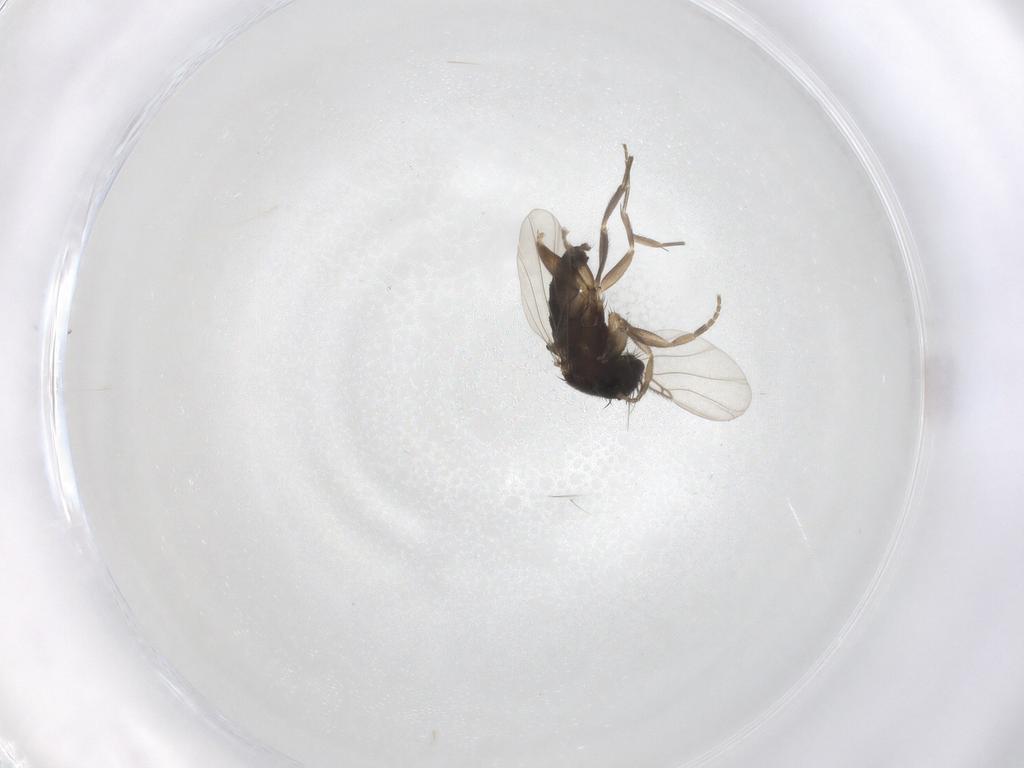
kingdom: Animalia
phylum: Arthropoda
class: Insecta
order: Diptera
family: Phoridae
